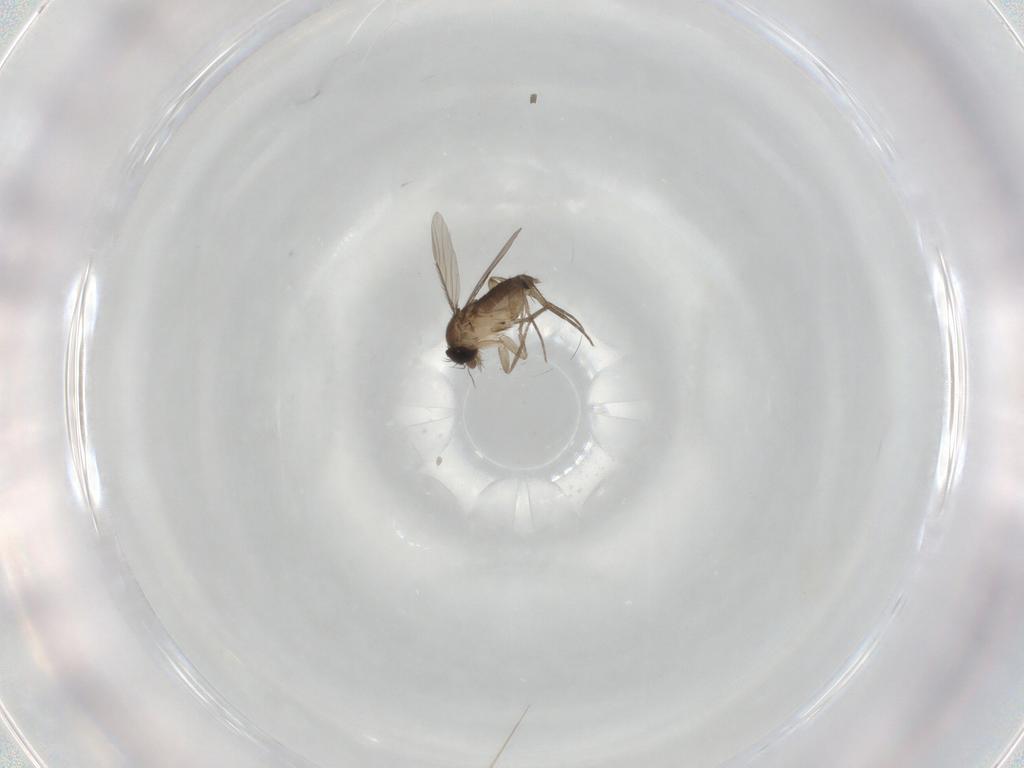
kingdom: Animalia
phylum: Arthropoda
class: Insecta
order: Diptera
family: Phoridae
